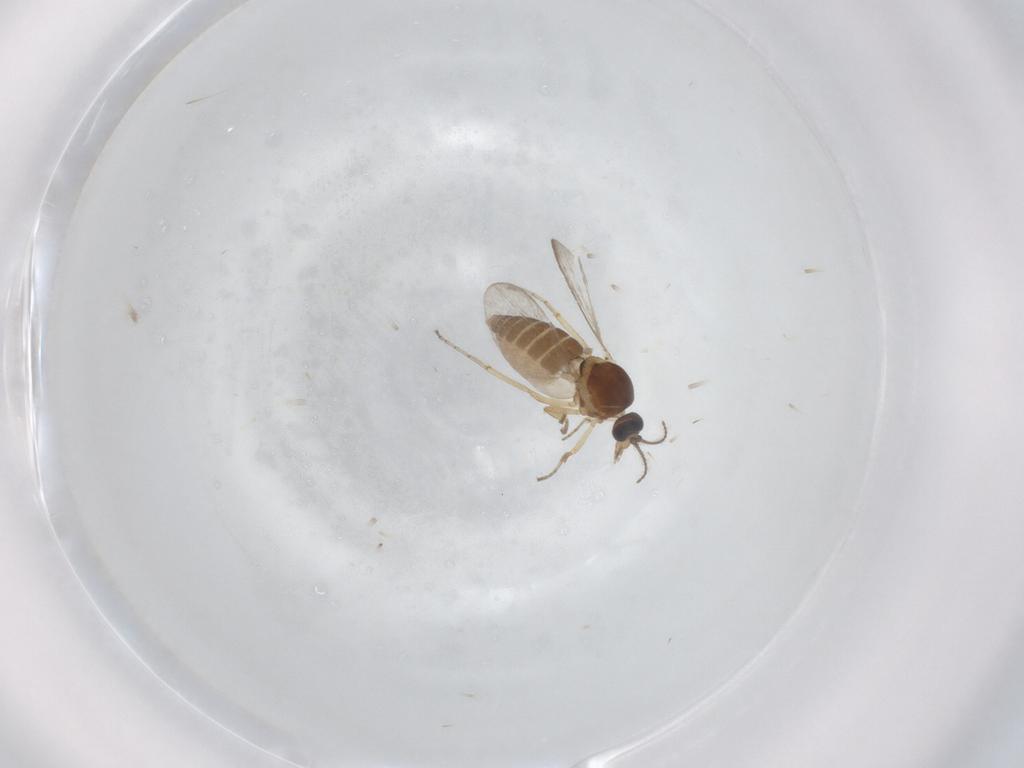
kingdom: Animalia
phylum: Arthropoda
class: Insecta
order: Diptera
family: Ceratopogonidae
